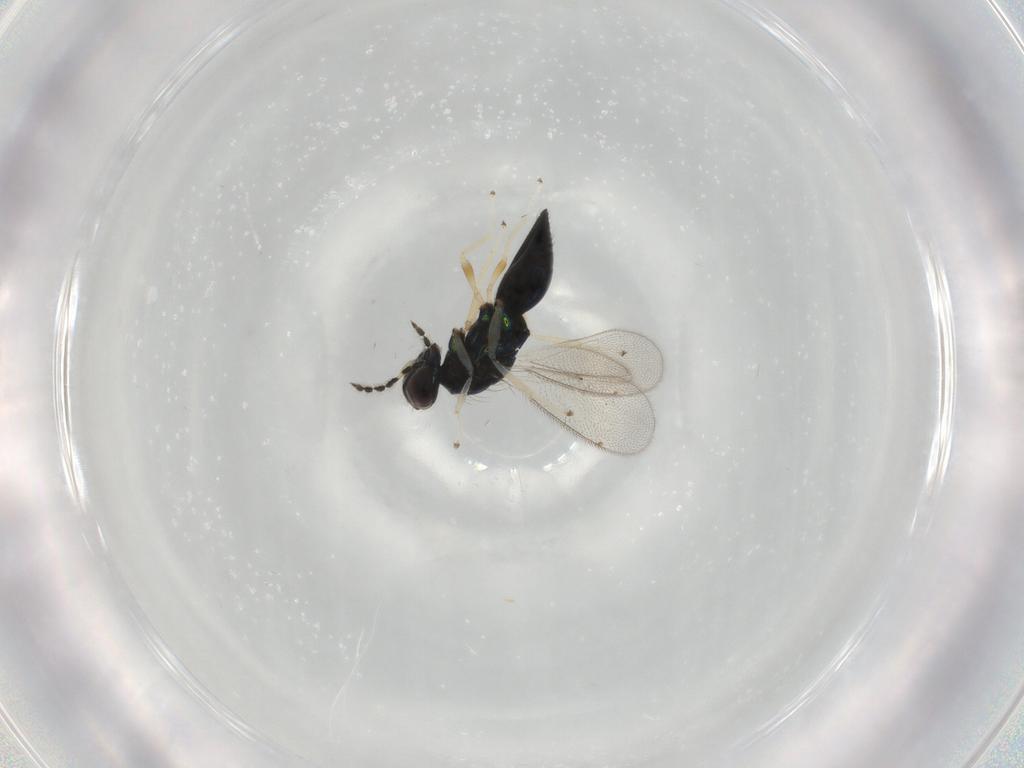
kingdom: Animalia
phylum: Arthropoda
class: Insecta
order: Hymenoptera
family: Eulophidae
